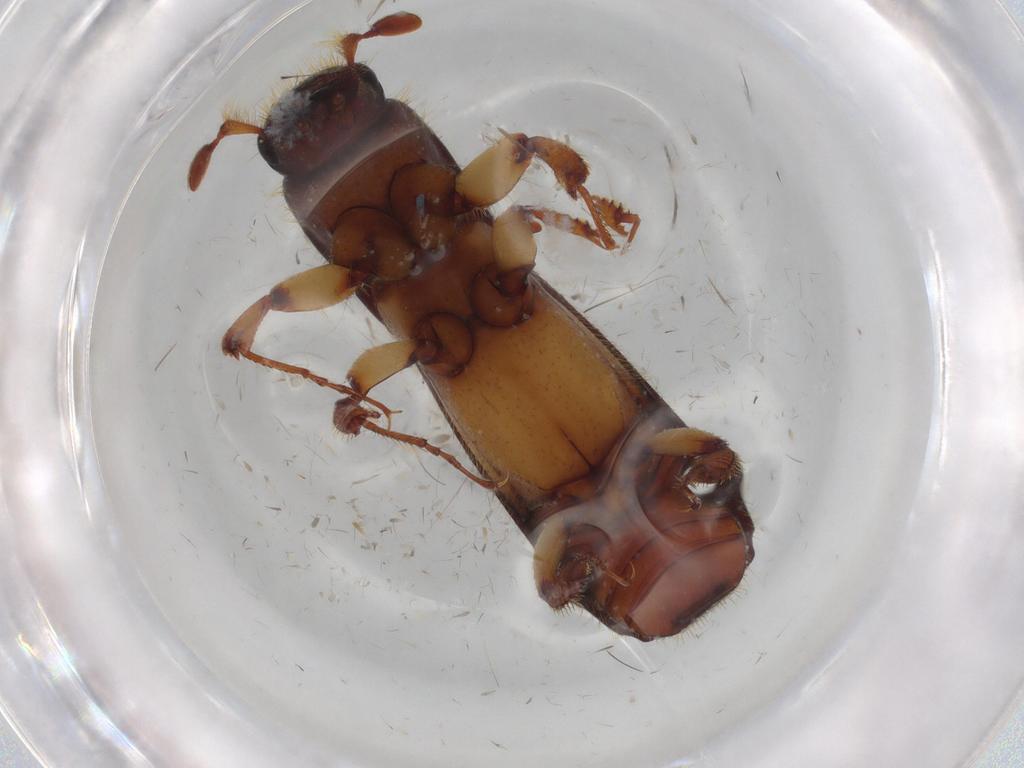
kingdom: Animalia
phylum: Arthropoda
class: Insecta
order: Coleoptera
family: Curculionidae
